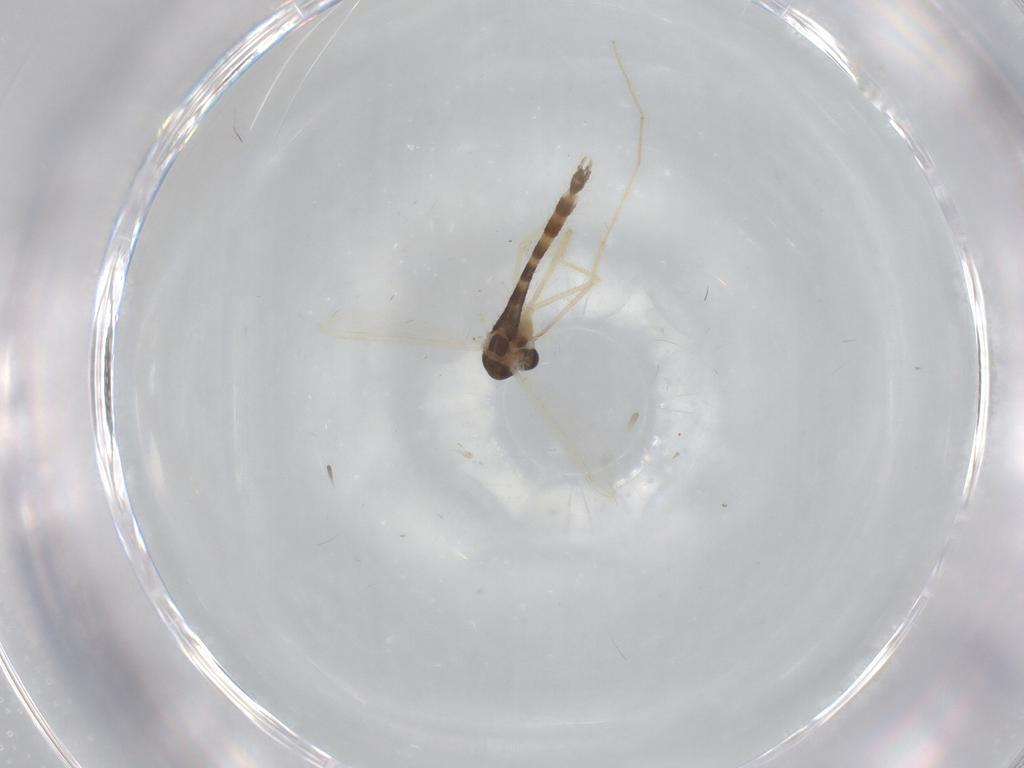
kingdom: Animalia
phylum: Arthropoda
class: Insecta
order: Diptera
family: Chironomidae
